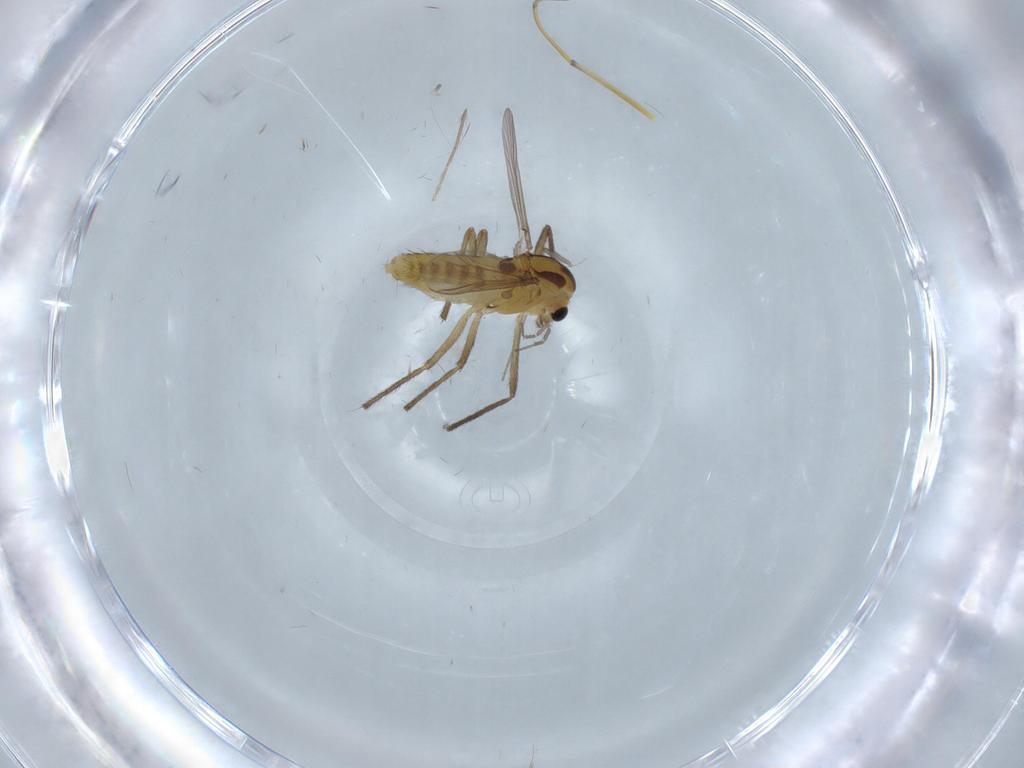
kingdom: Animalia
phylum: Arthropoda
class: Insecta
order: Diptera
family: Chironomidae
